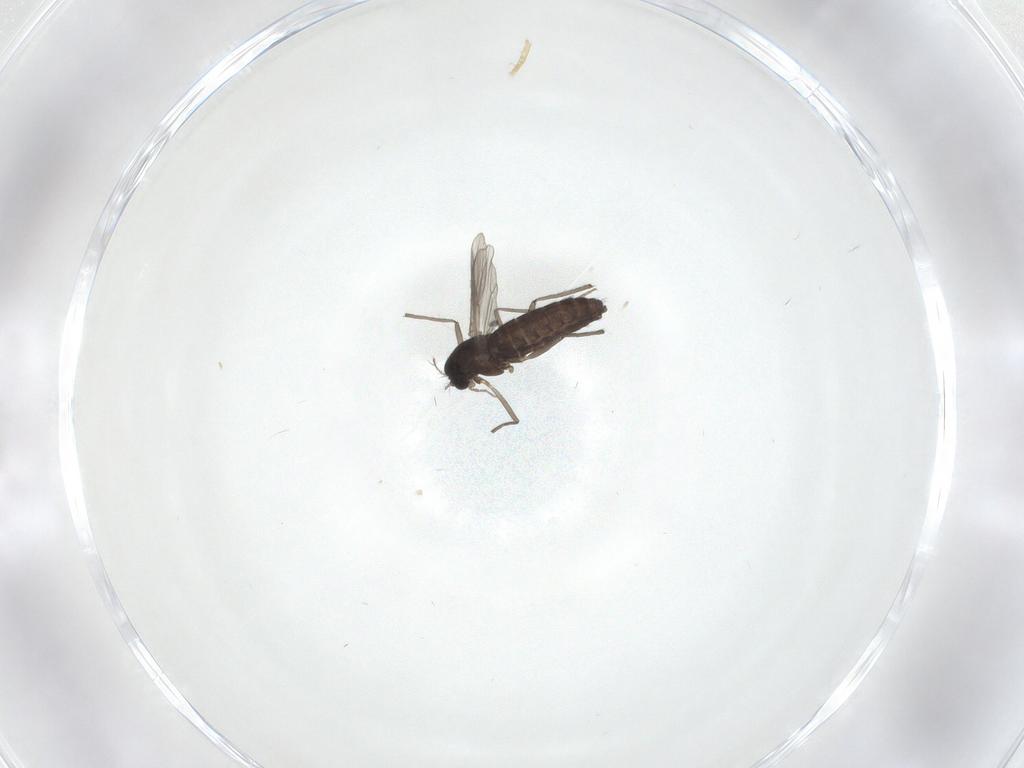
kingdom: Animalia
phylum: Arthropoda
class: Insecta
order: Diptera
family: Chironomidae
